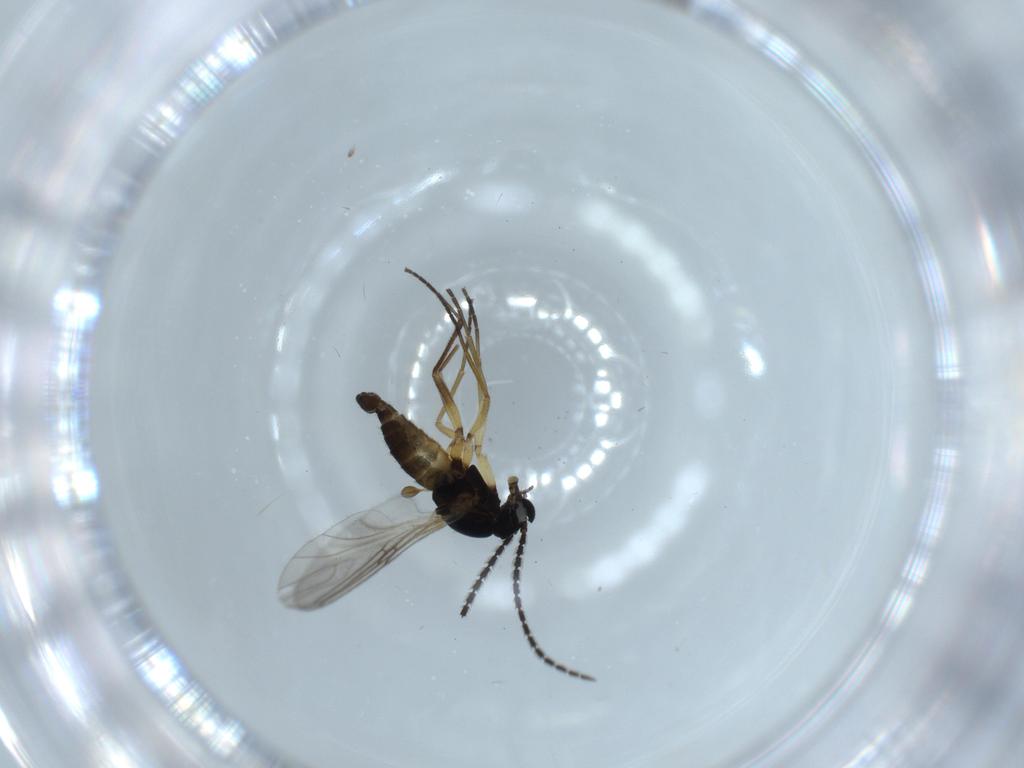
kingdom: Animalia
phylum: Arthropoda
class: Insecta
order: Diptera
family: Sciaridae
